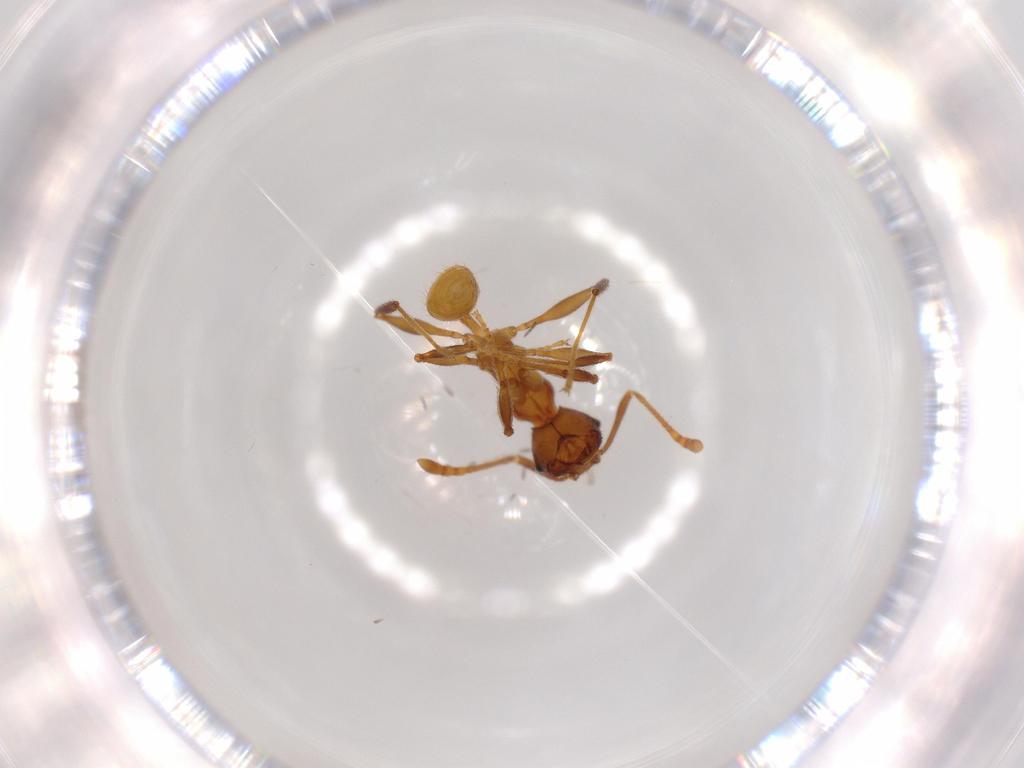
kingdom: Animalia
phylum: Arthropoda
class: Insecta
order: Hymenoptera
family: Formicidae
